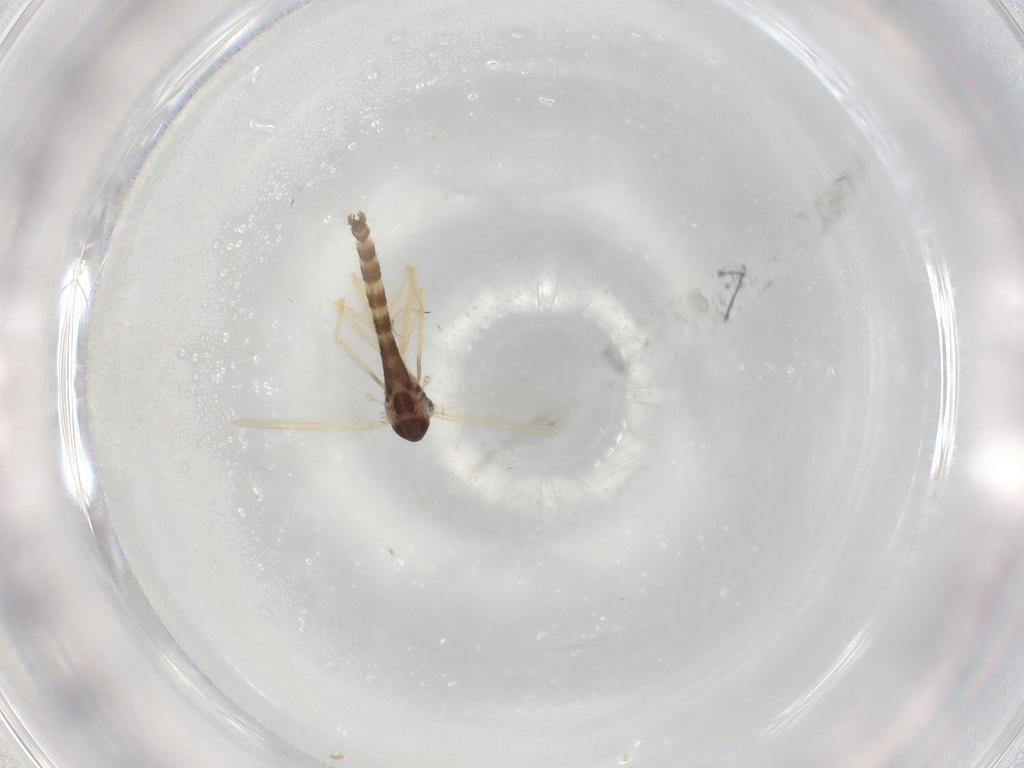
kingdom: Animalia
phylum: Arthropoda
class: Insecta
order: Diptera
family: Chironomidae
